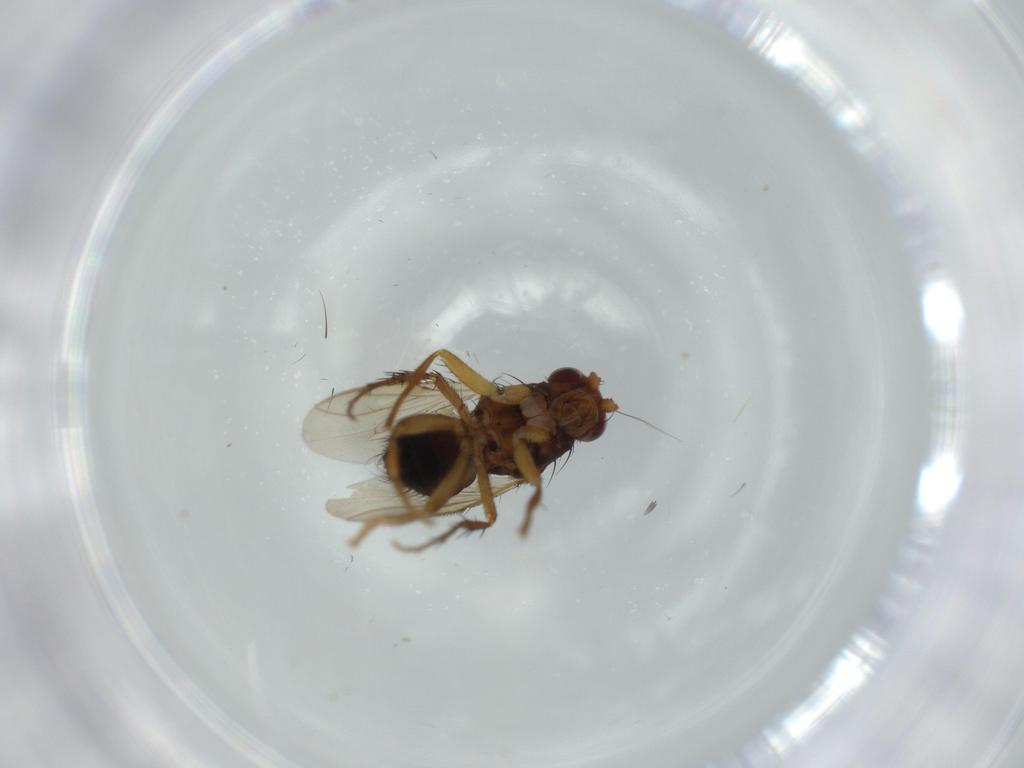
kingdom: Animalia
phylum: Arthropoda
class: Insecta
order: Diptera
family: Sphaeroceridae
